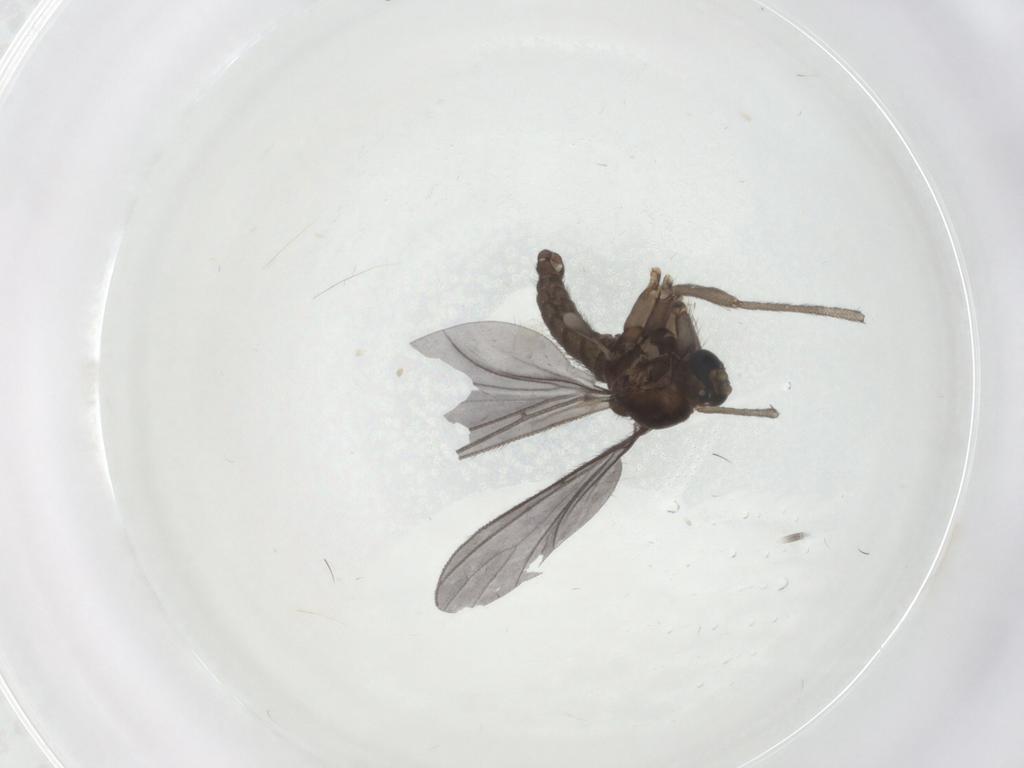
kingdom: Animalia
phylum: Arthropoda
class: Insecta
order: Diptera
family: Sciaridae
